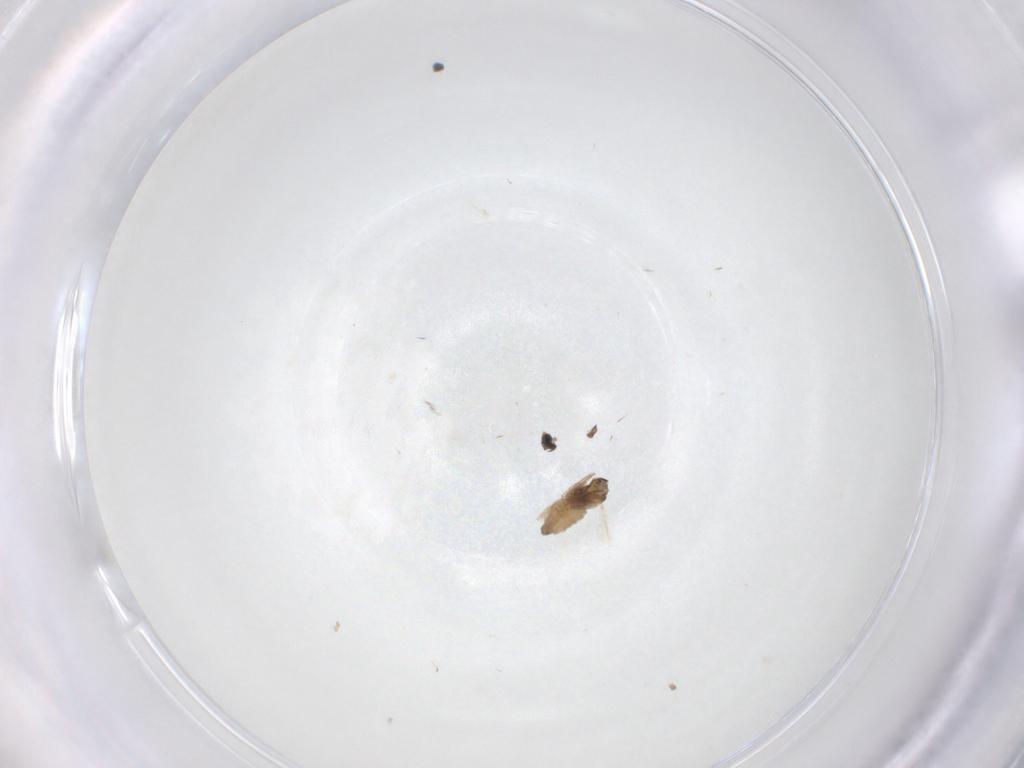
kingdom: Animalia
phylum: Arthropoda
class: Insecta
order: Diptera
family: Cecidomyiidae
